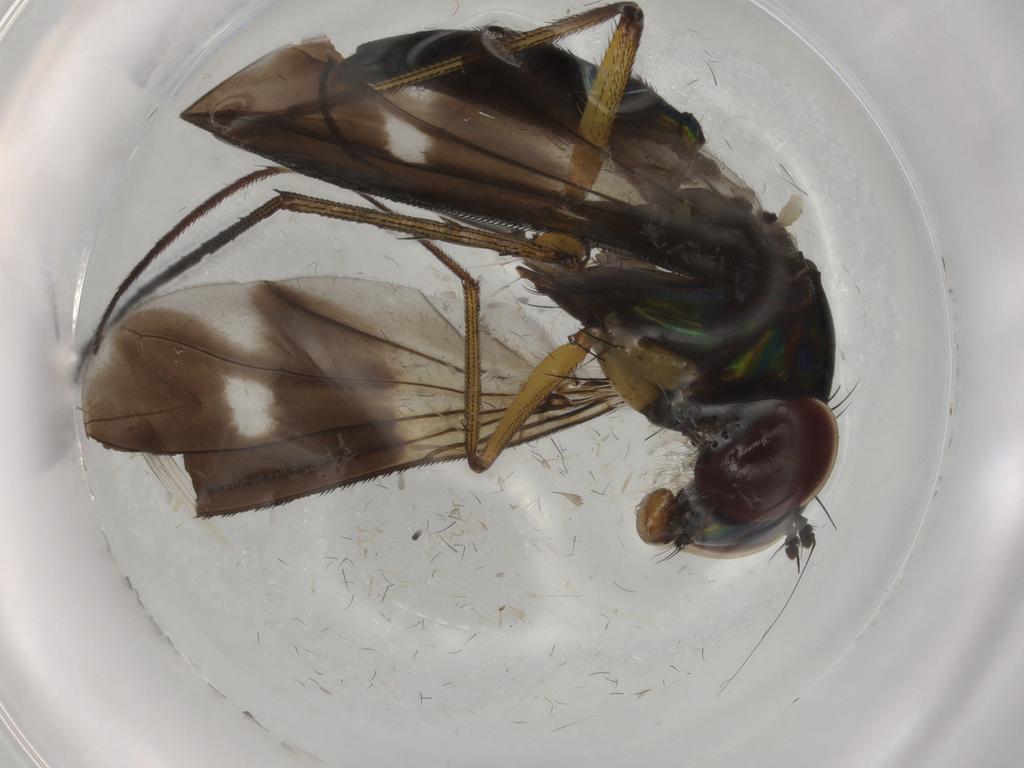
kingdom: Animalia
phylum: Arthropoda
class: Insecta
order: Diptera
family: Dolichopodidae
